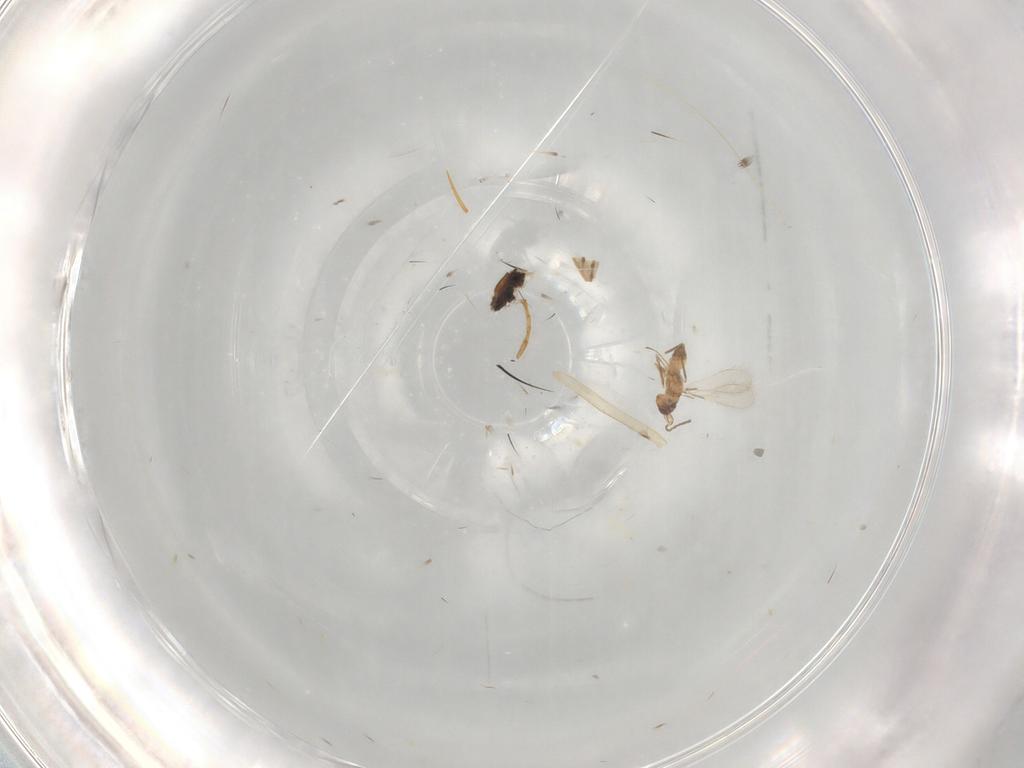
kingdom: Animalia
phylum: Arthropoda
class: Insecta
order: Hymenoptera
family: Mymaridae
